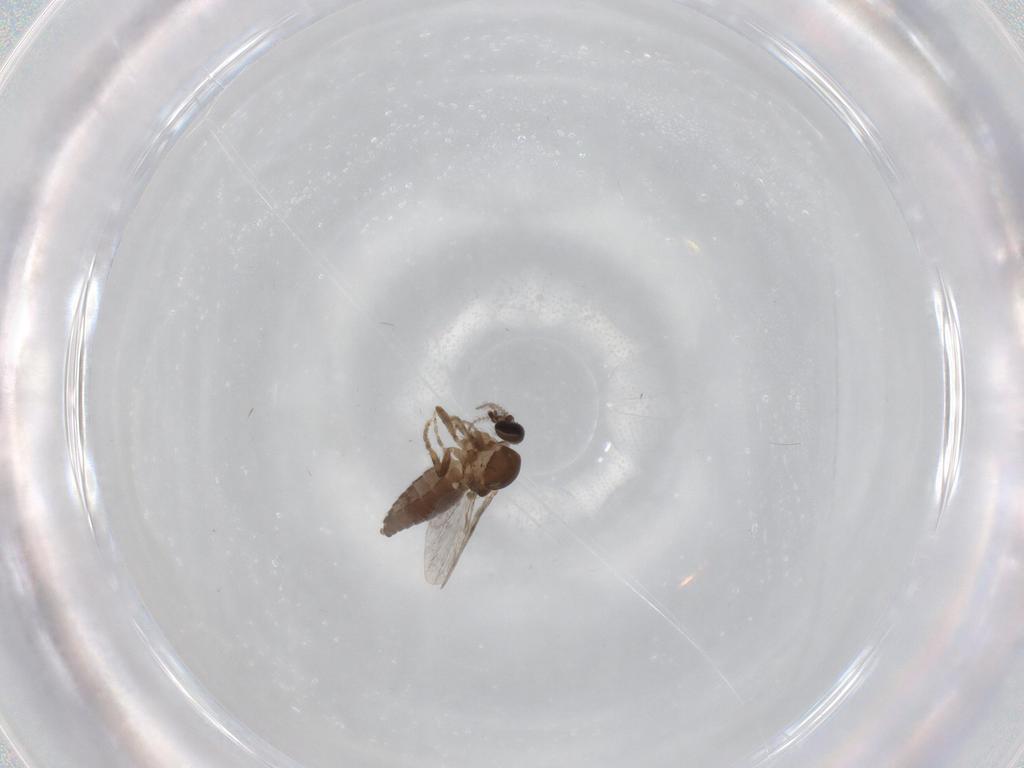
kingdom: Animalia
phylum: Arthropoda
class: Insecta
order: Diptera
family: Ceratopogonidae
